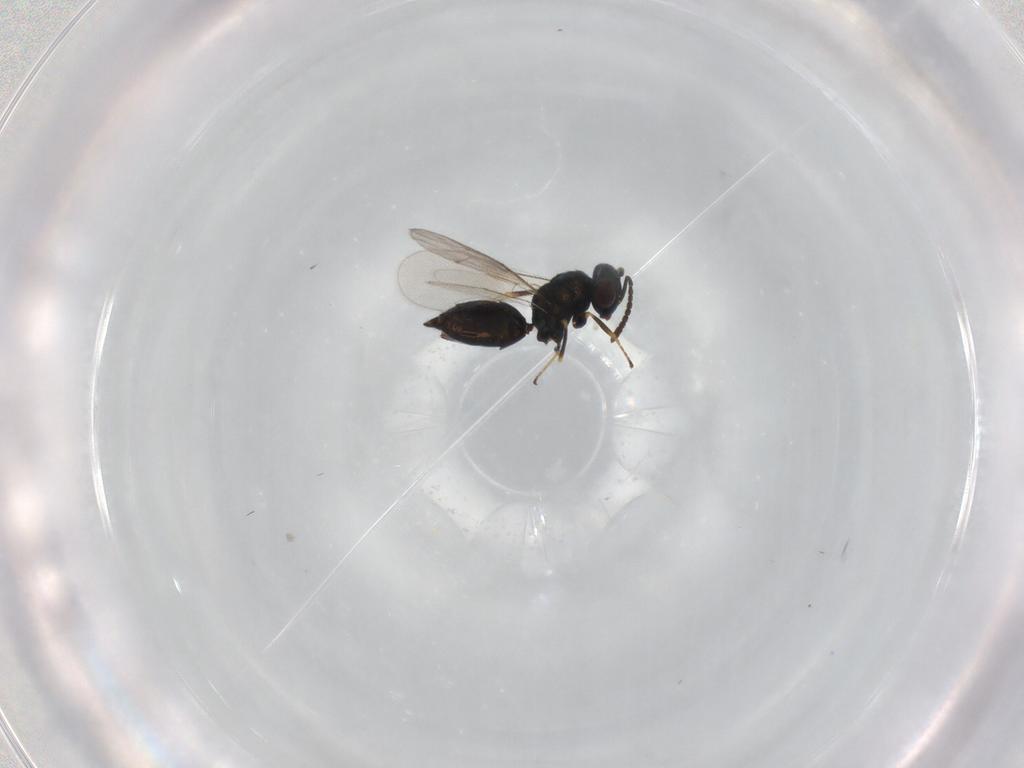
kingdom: Animalia
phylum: Arthropoda
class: Insecta
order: Hymenoptera
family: Pteromalidae
